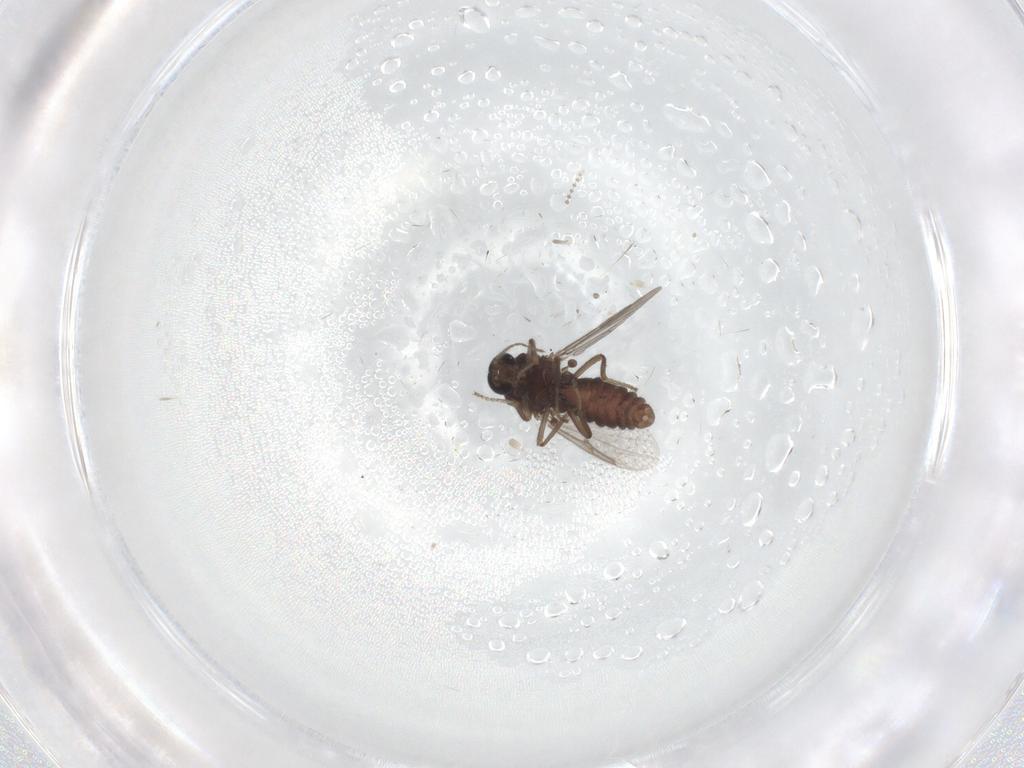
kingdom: Animalia
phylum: Arthropoda
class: Insecta
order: Diptera
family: Ceratopogonidae
